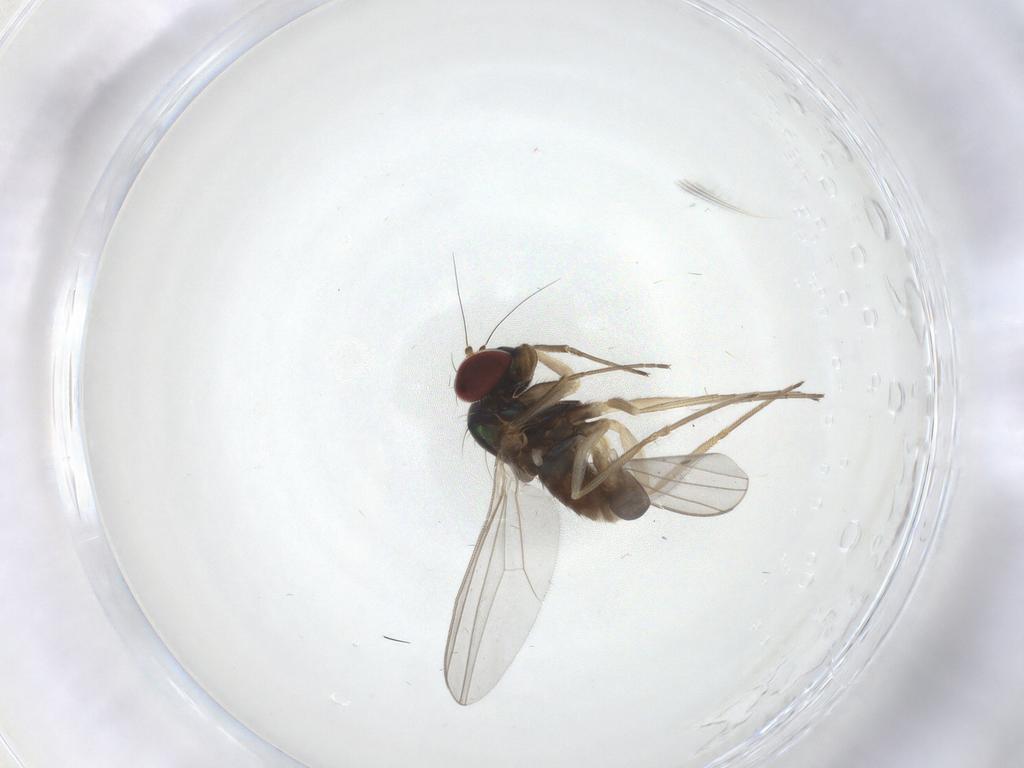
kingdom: Animalia
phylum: Arthropoda
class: Insecta
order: Diptera
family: Dolichopodidae
